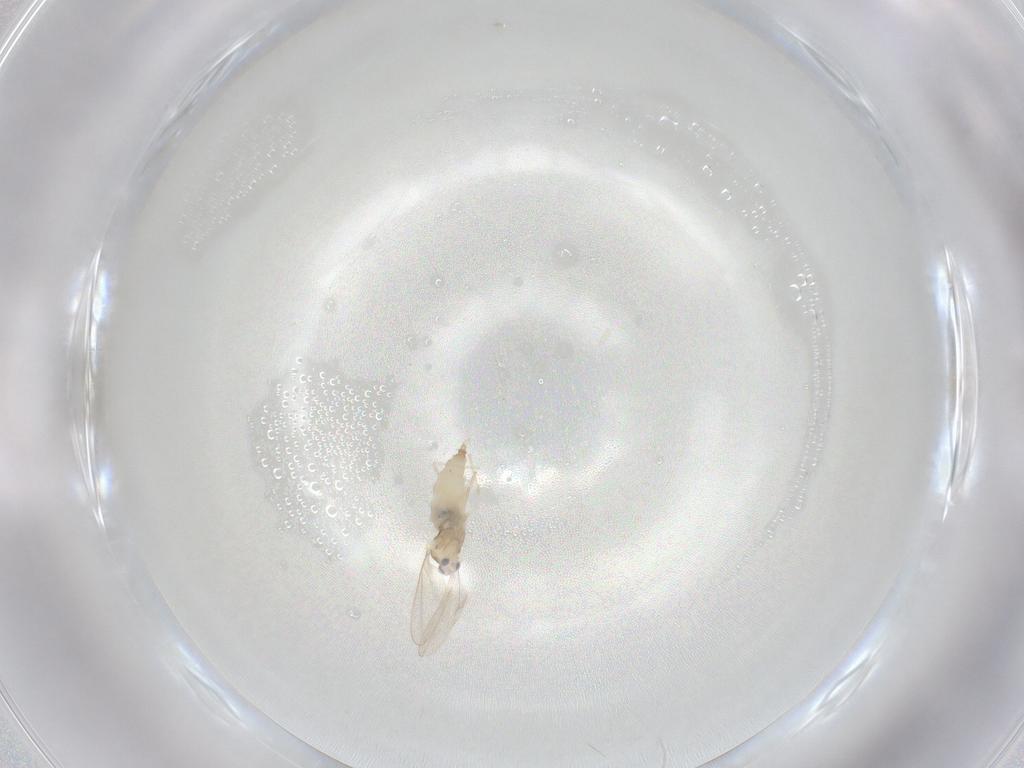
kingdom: Animalia
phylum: Arthropoda
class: Insecta
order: Diptera
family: Cecidomyiidae
